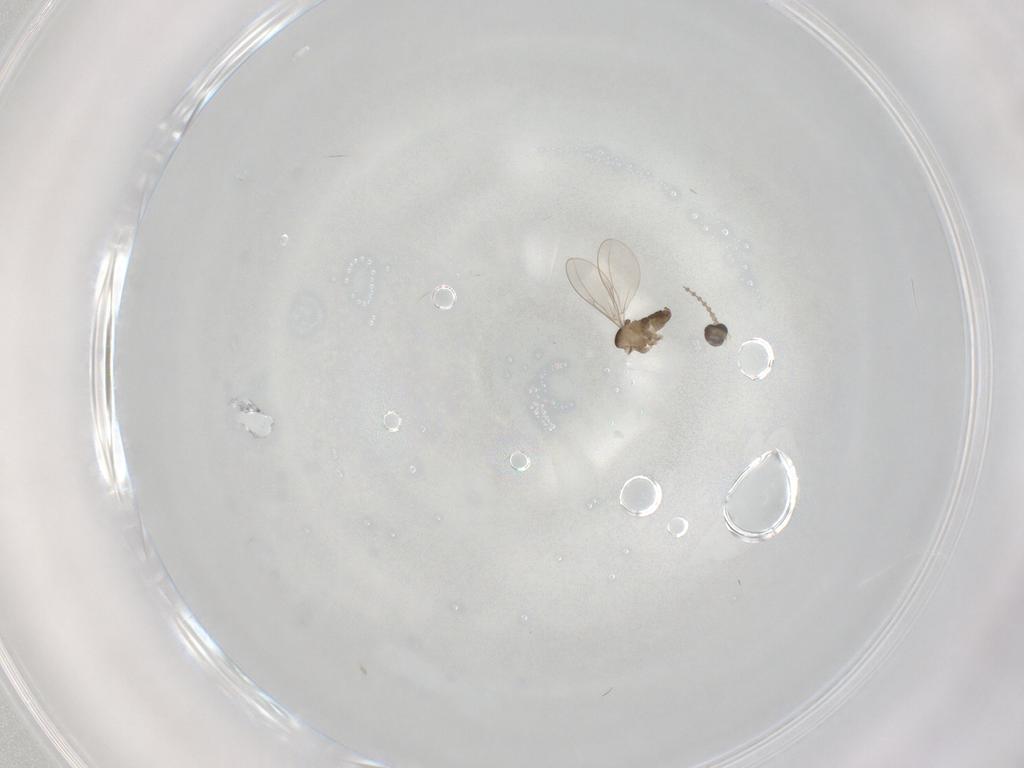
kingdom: Animalia
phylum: Arthropoda
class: Insecta
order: Diptera
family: Cecidomyiidae
